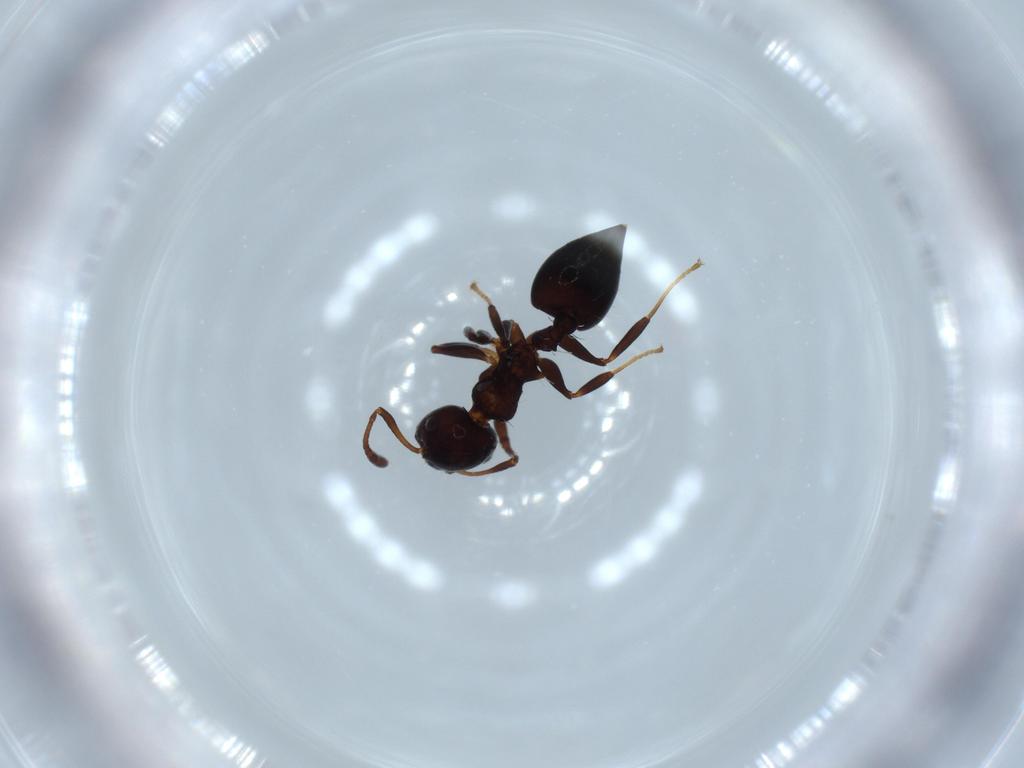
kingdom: Animalia
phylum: Arthropoda
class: Insecta
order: Hymenoptera
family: Formicidae
